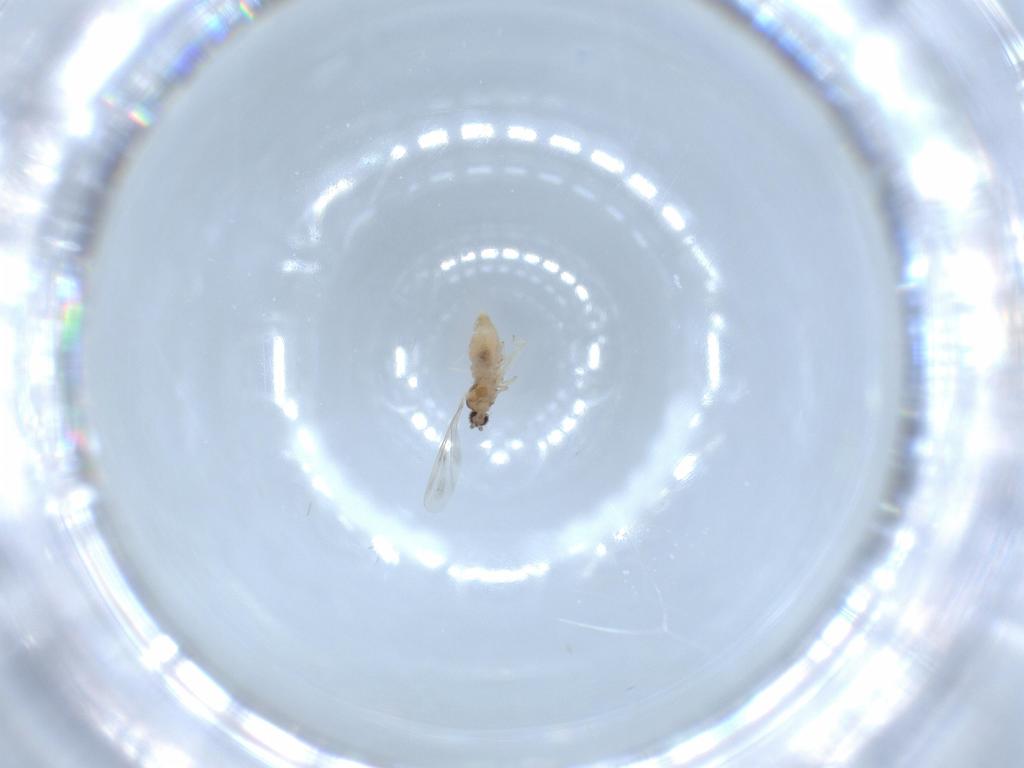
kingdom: Animalia
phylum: Arthropoda
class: Insecta
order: Diptera
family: Cecidomyiidae
